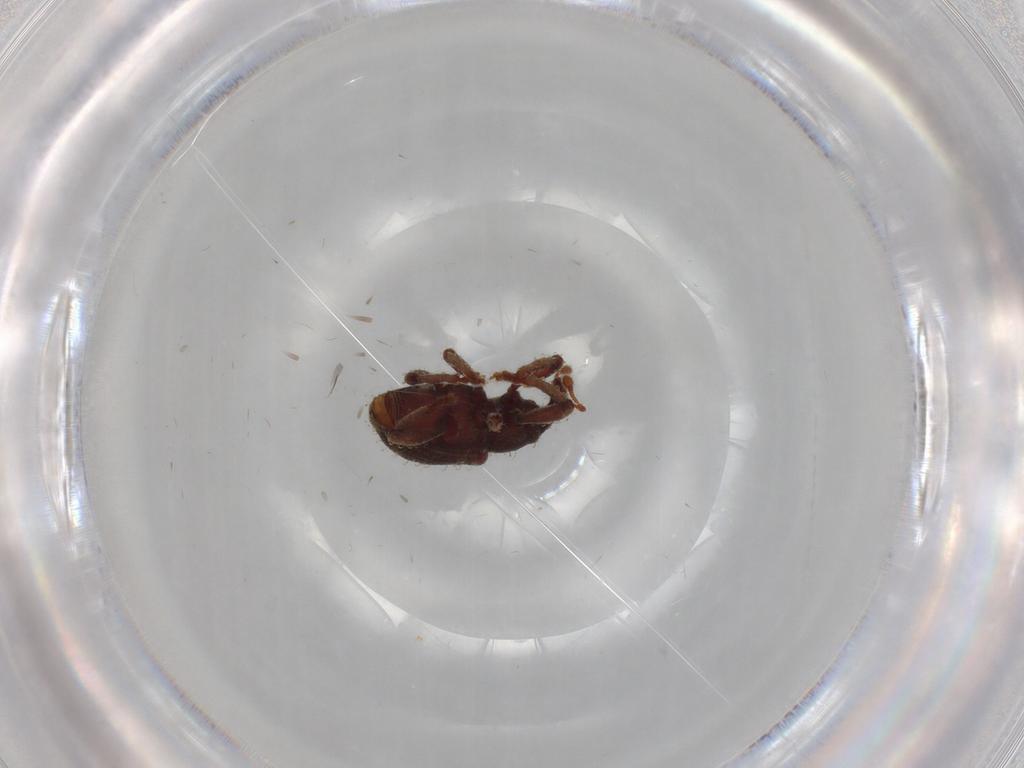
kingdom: Animalia
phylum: Arthropoda
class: Insecta
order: Coleoptera
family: Curculionidae
